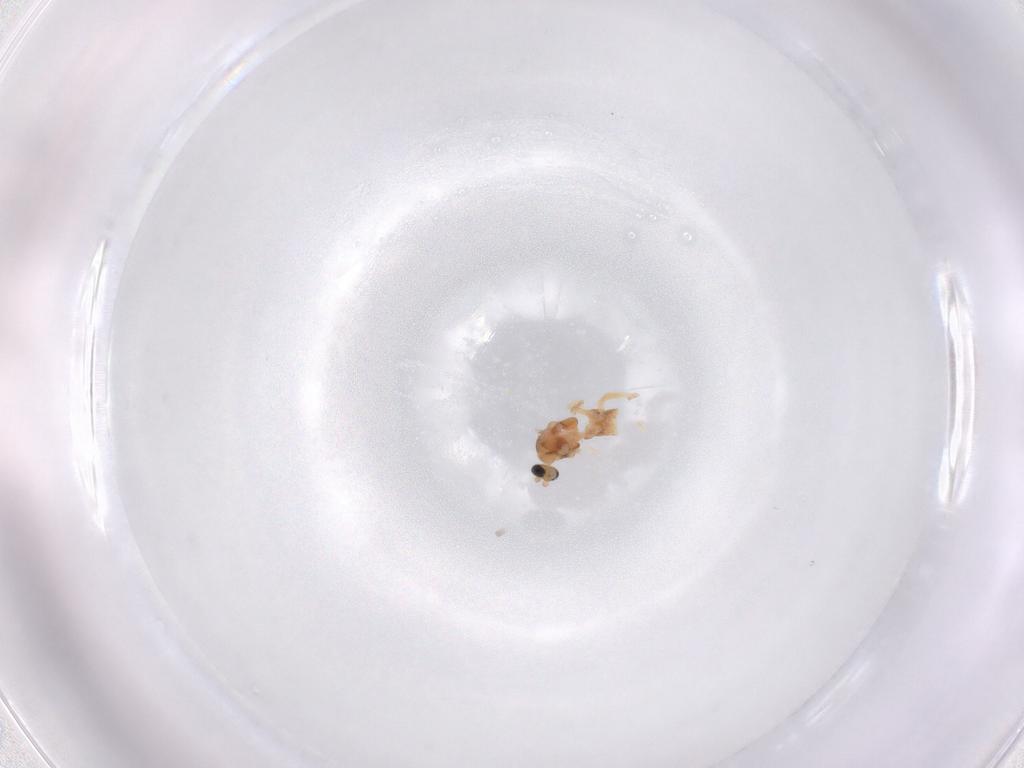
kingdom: Animalia
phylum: Arthropoda
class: Insecta
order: Diptera
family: Cecidomyiidae
